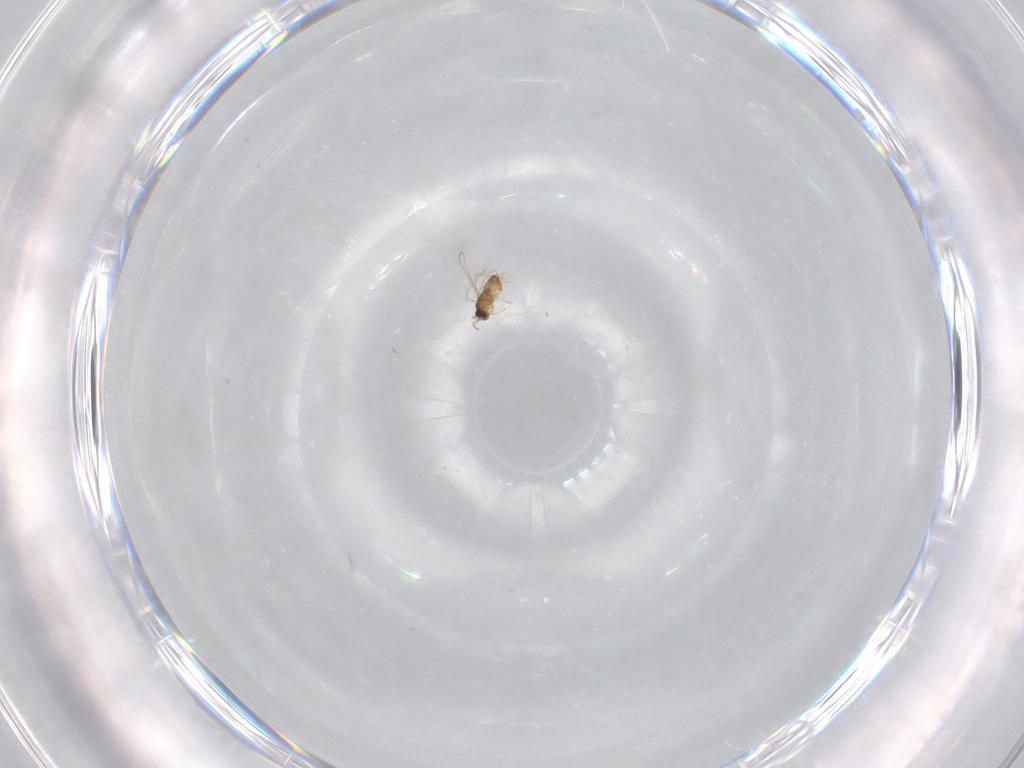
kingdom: Animalia
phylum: Arthropoda
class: Insecta
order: Hymenoptera
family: Mymaridae
